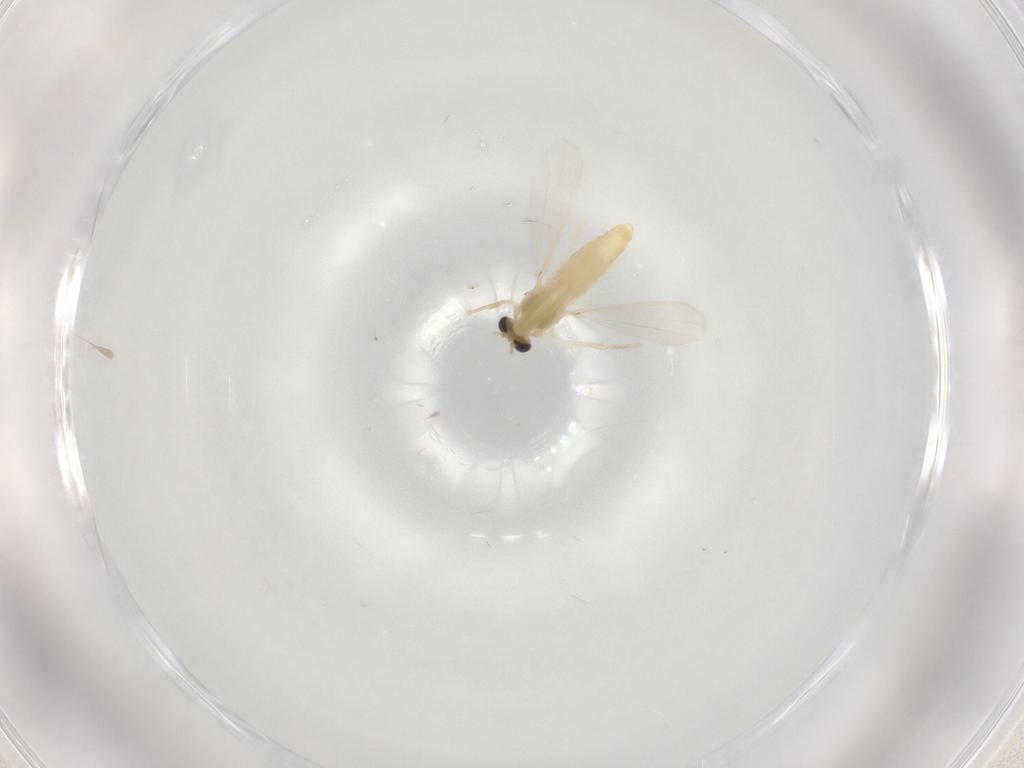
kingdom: Animalia
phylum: Arthropoda
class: Insecta
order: Diptera
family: Chironomidae
